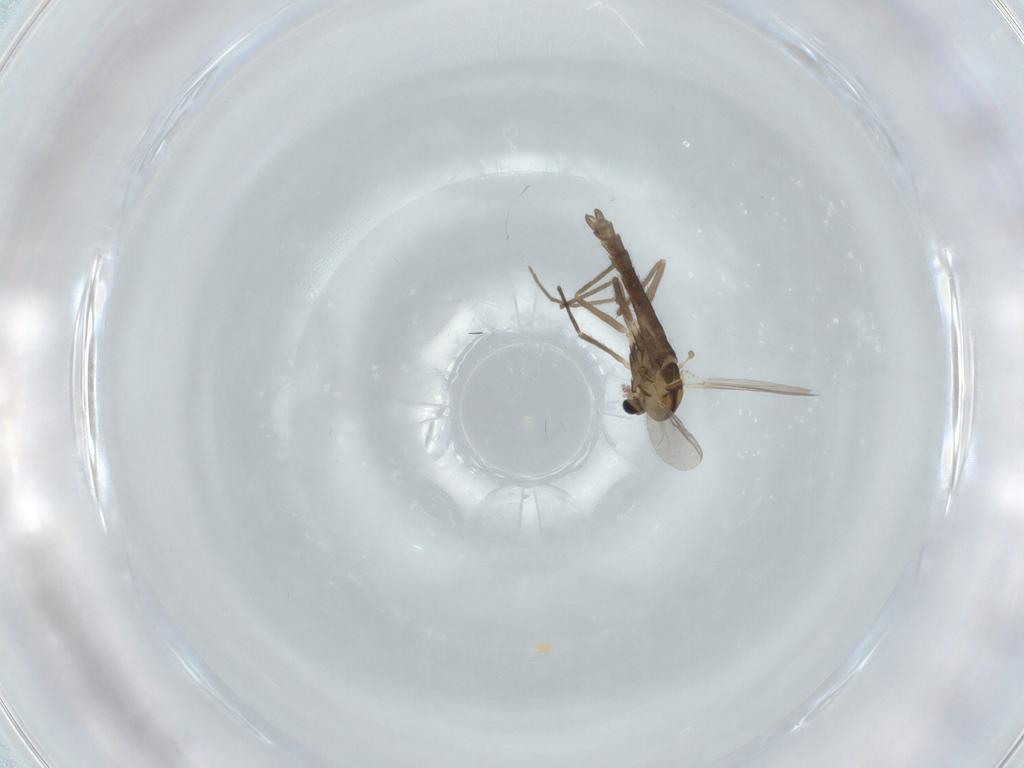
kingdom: Animalia
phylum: Arthropoda
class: Insecta
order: Diptera
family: Chironomidae
